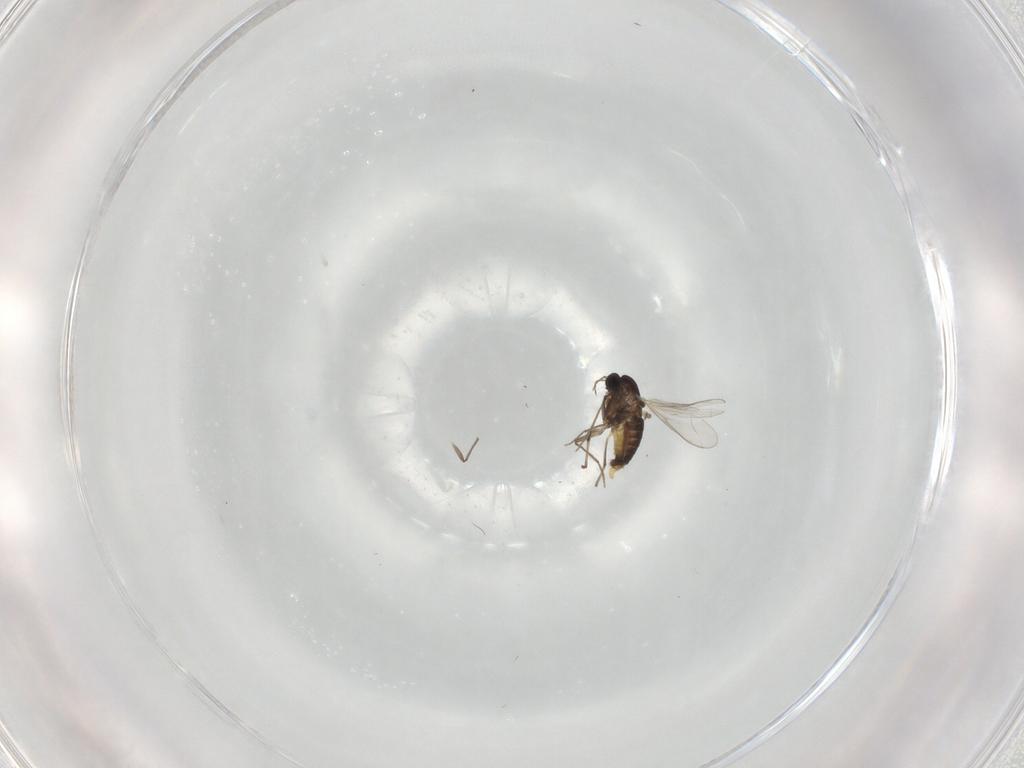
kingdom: Animalia
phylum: Arthropoda
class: Insecta
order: Diptera
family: Chironomidae
